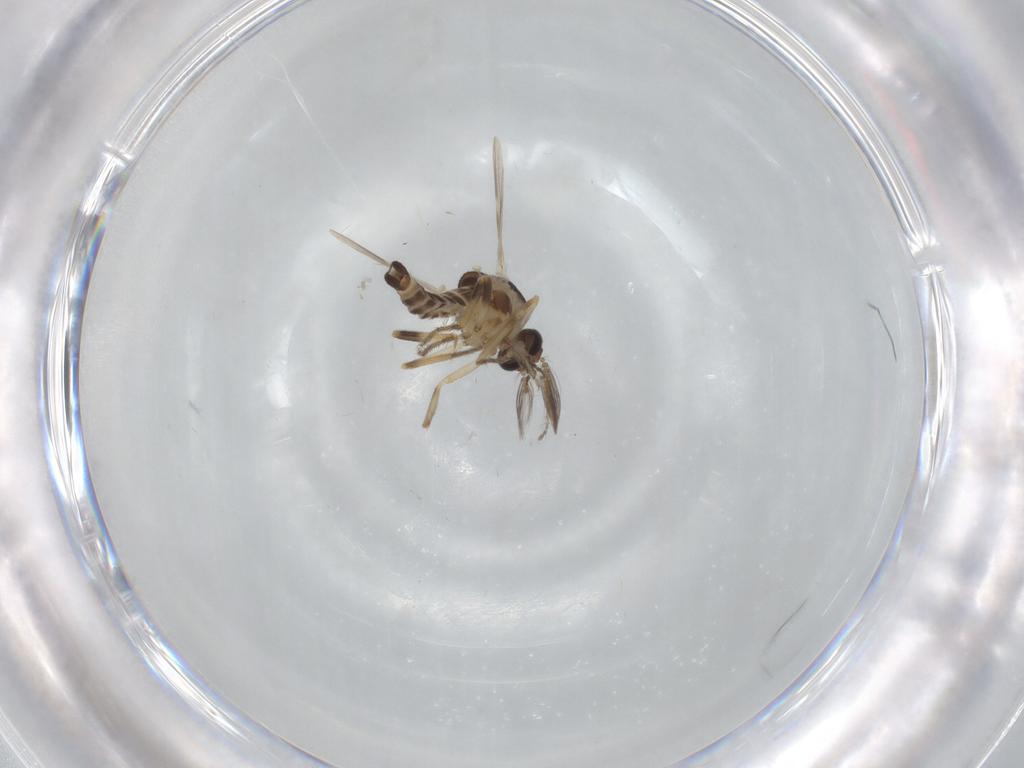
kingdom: Animalia
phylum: Arthropoda
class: Insecta
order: Diptera
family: Ceratopogonidae
